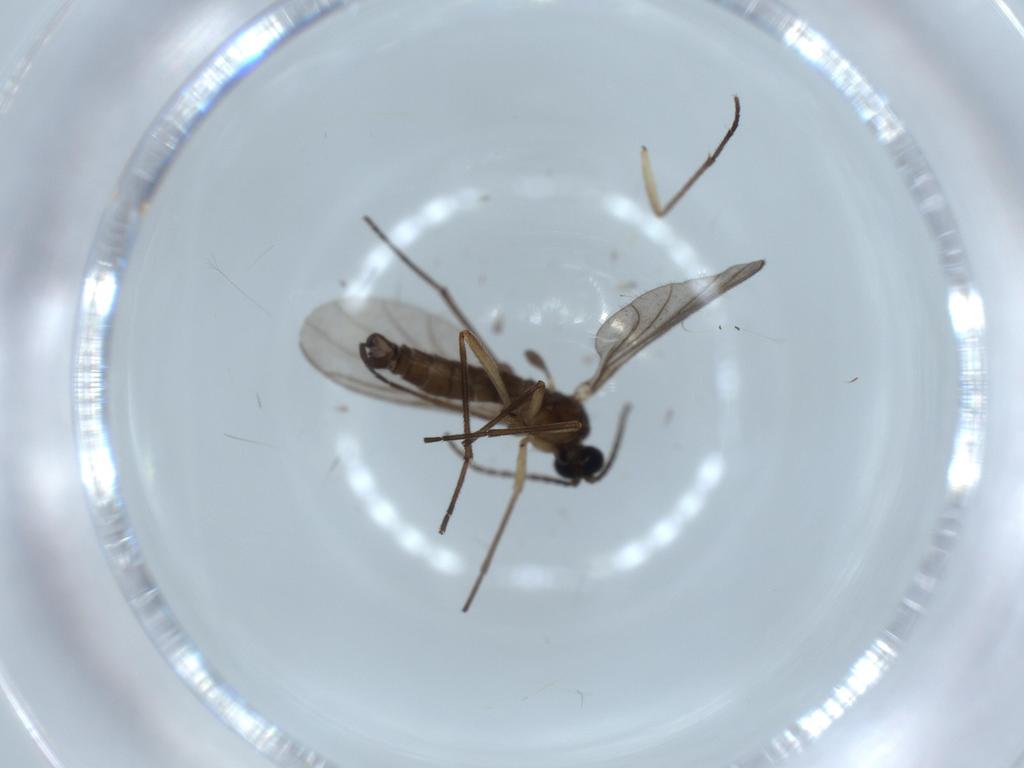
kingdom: Animalia
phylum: Arthropoda
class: Insecta
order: Diptera
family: Sciaridae
